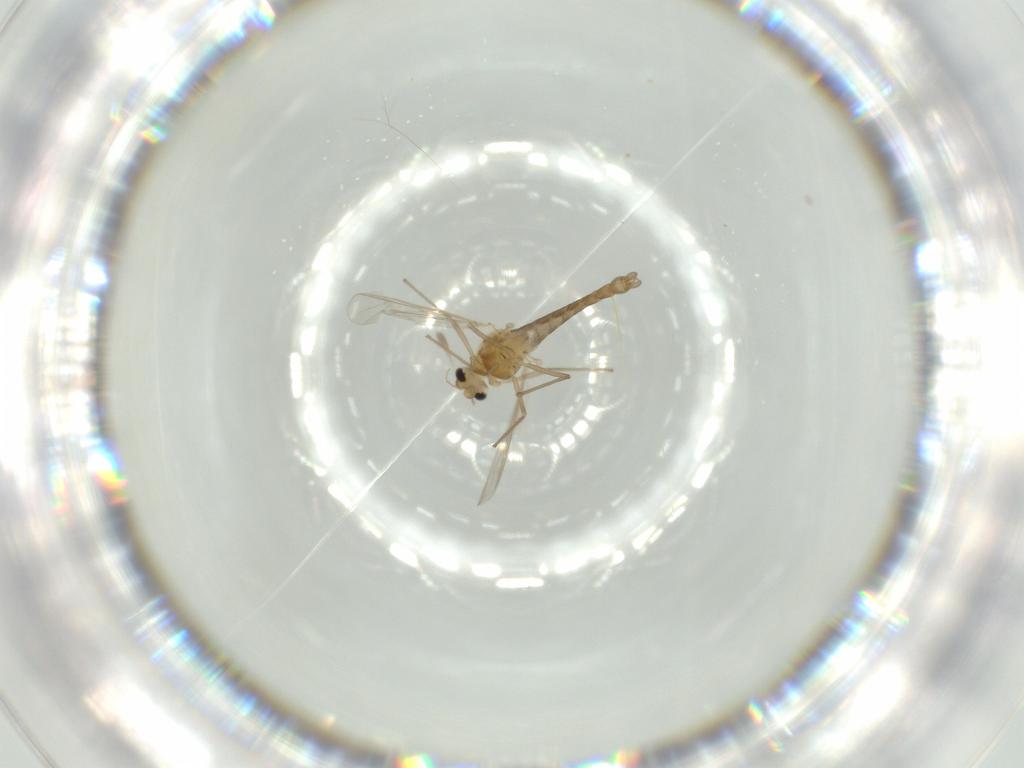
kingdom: Animalia
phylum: Arthropoda
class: Insecta
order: Diptera
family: Chironomidae
